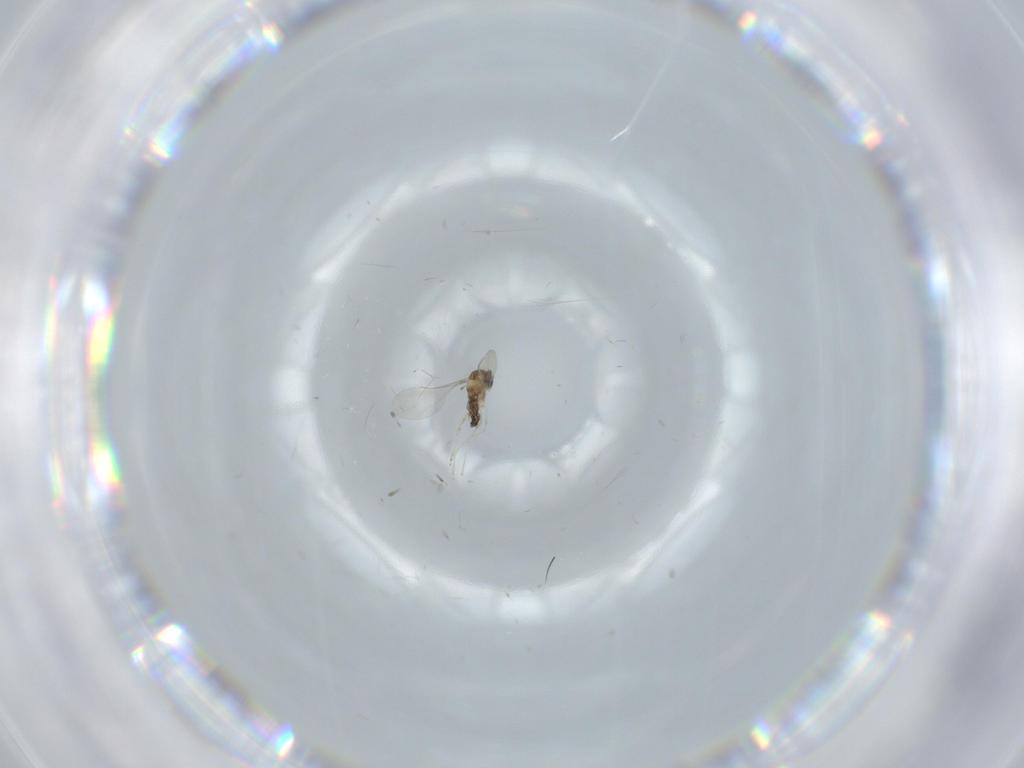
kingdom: Animalia
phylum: Arthropoda
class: Insecta
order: Diptera
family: Cecidomyiidae
